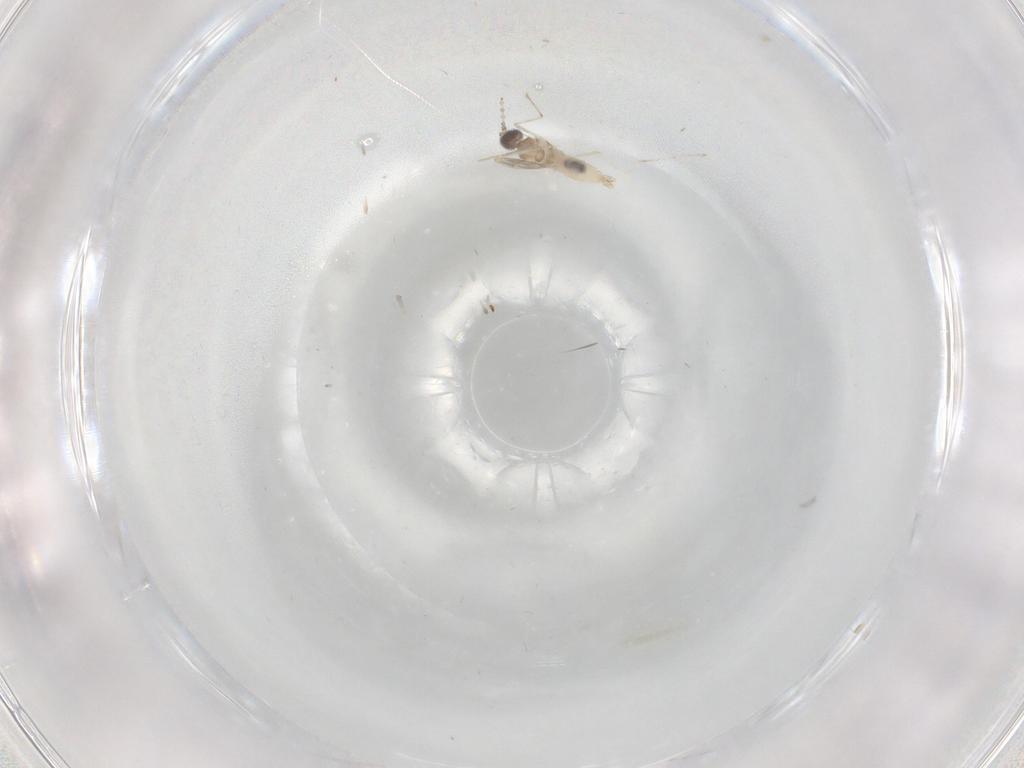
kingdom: Animalia
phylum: Arthropoda
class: Insecta
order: Diptera
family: Cecidomyiidae
